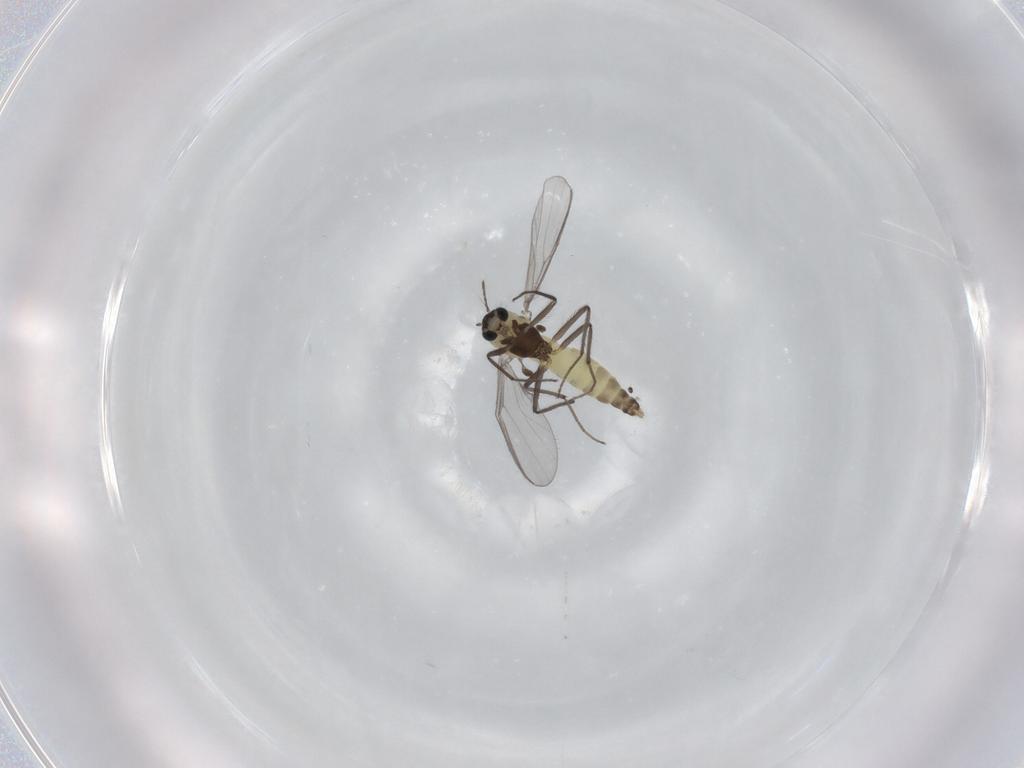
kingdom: Animalia
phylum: Arthropoda
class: Insecta
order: Diptera
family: Chironomidae
